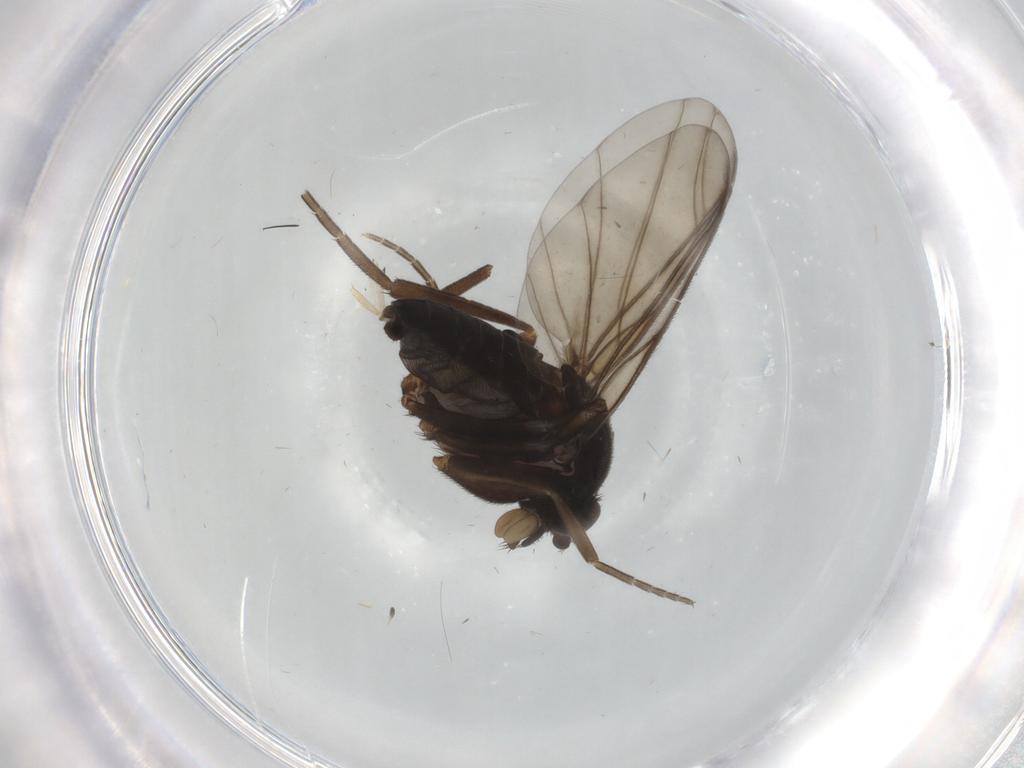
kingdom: Animalia
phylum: Arthropoda
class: Insecta
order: Diptera
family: Phoridae
